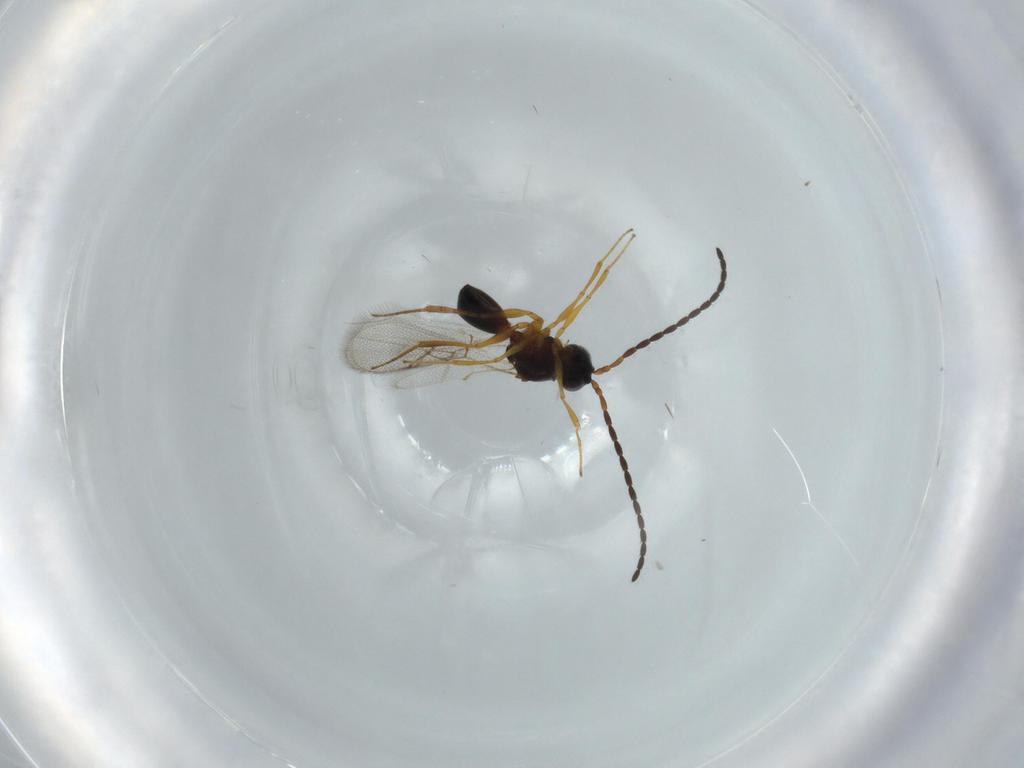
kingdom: Animalia
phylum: Arthropoda
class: Insecta
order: Hymenoptera
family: Figitidae
